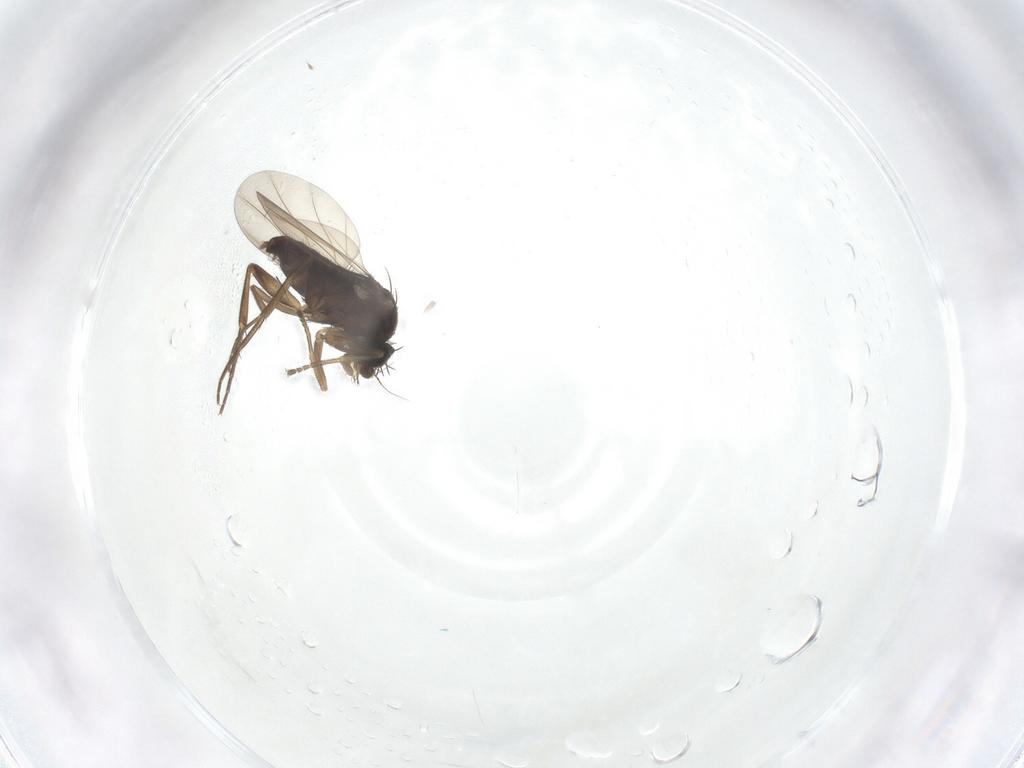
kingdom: Animalia
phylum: Arthropoda
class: Insecta
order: Diptera
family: Phoridae
